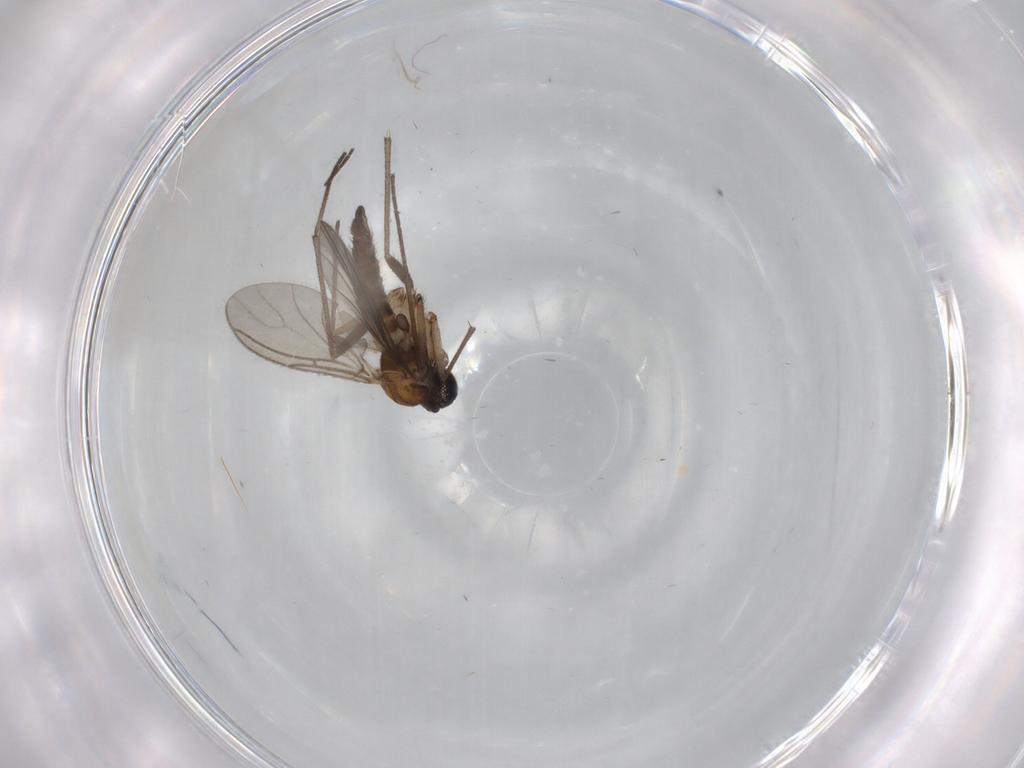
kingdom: Animalia
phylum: Arthropoda
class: Insecta
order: Diptera
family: Sciaridae
